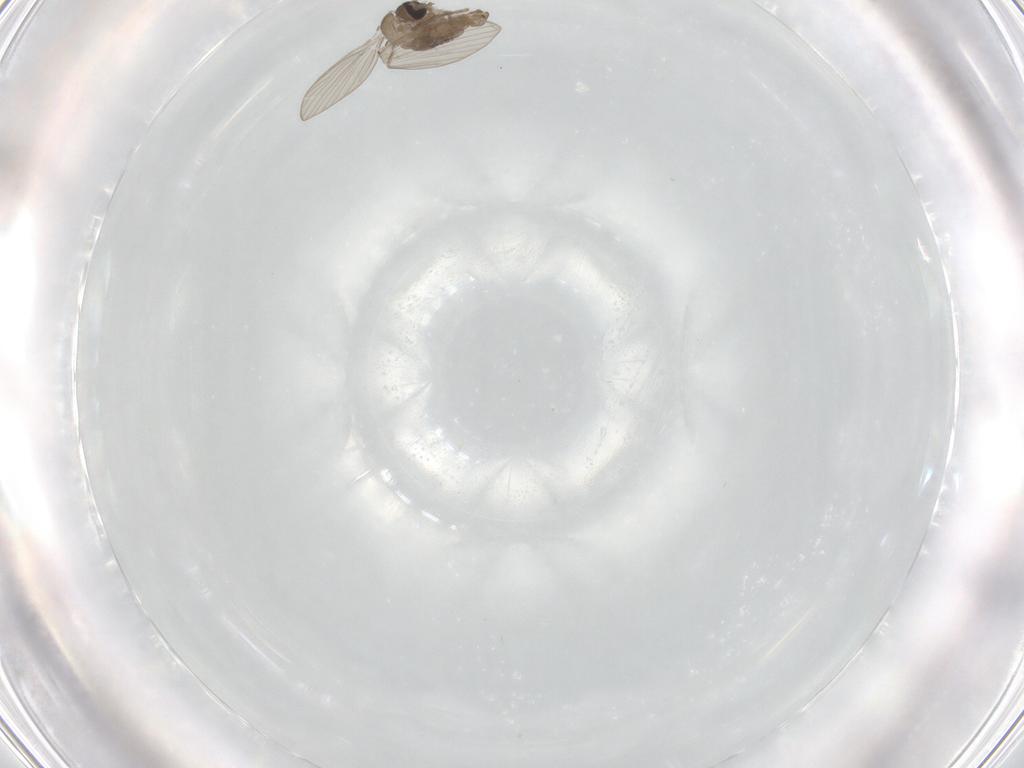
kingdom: Animalia
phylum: Arthropoda
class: Insecta
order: Diptera
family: Psychodidae
